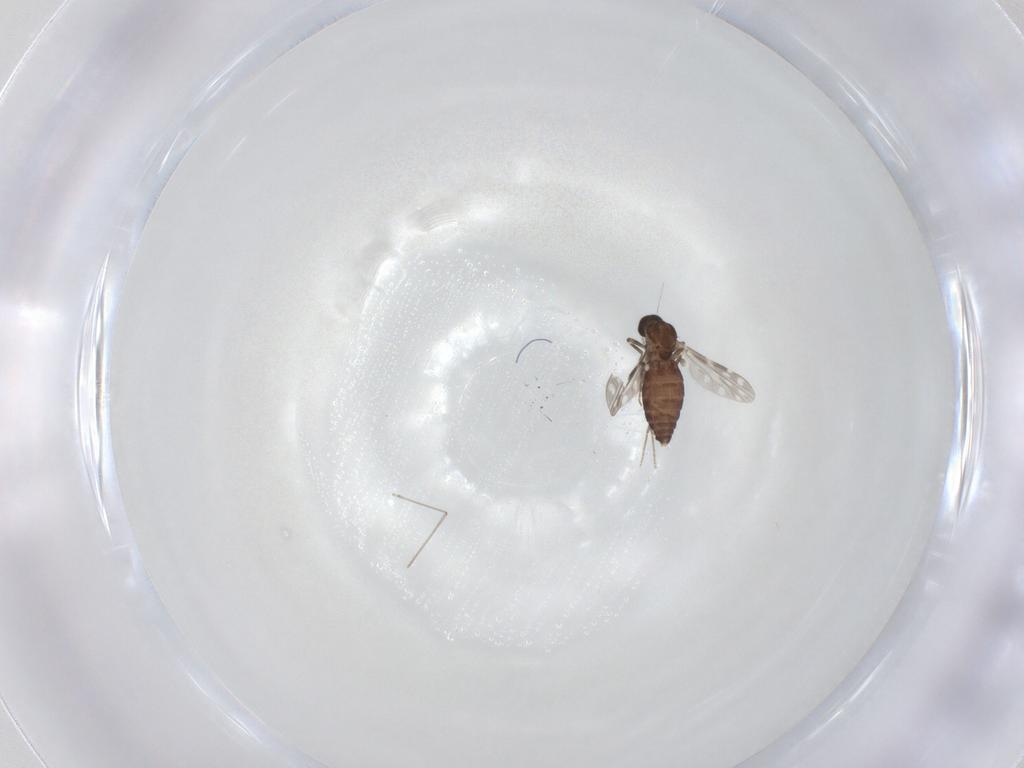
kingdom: Animalia
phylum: Arthropoda
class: Insecta
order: Diptera
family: Cecidomyiidae
